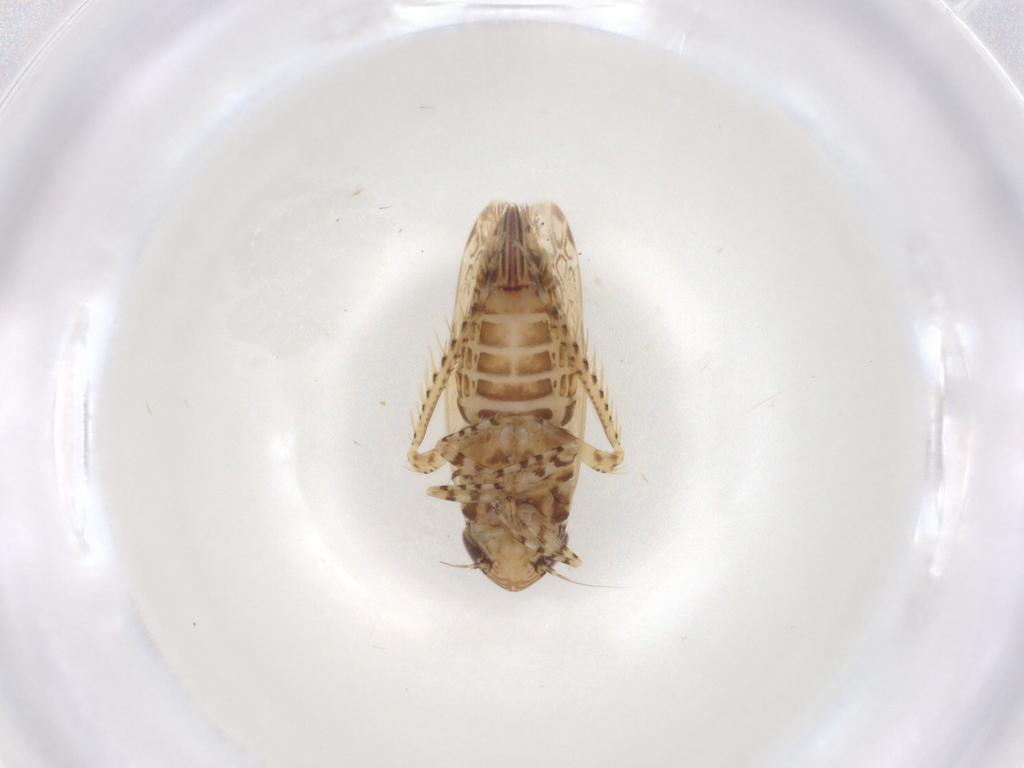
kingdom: Animalia
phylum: Arthropoda
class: Insecta
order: Hemiptera
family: Cicadellidae
